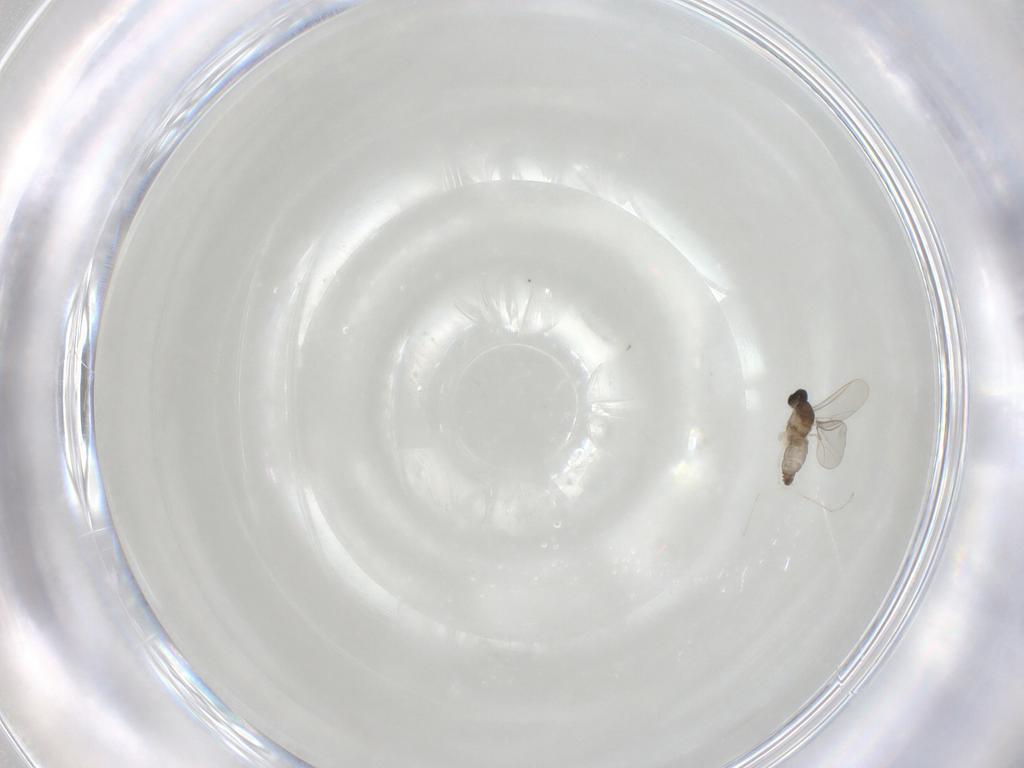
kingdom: Animalia
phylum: Arthropoda
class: Insecta
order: Diptera
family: Cecidomyiidae
